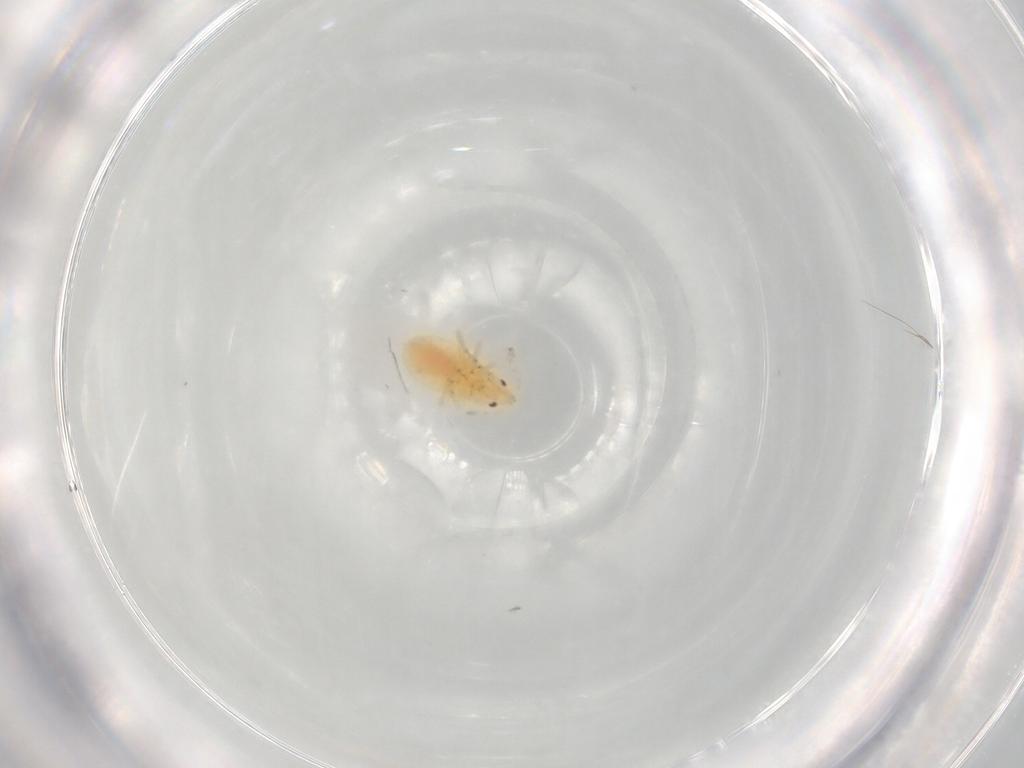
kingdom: Animalia
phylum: Arthropoda
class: Insecta
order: Hemiptera
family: Anthocoridae
